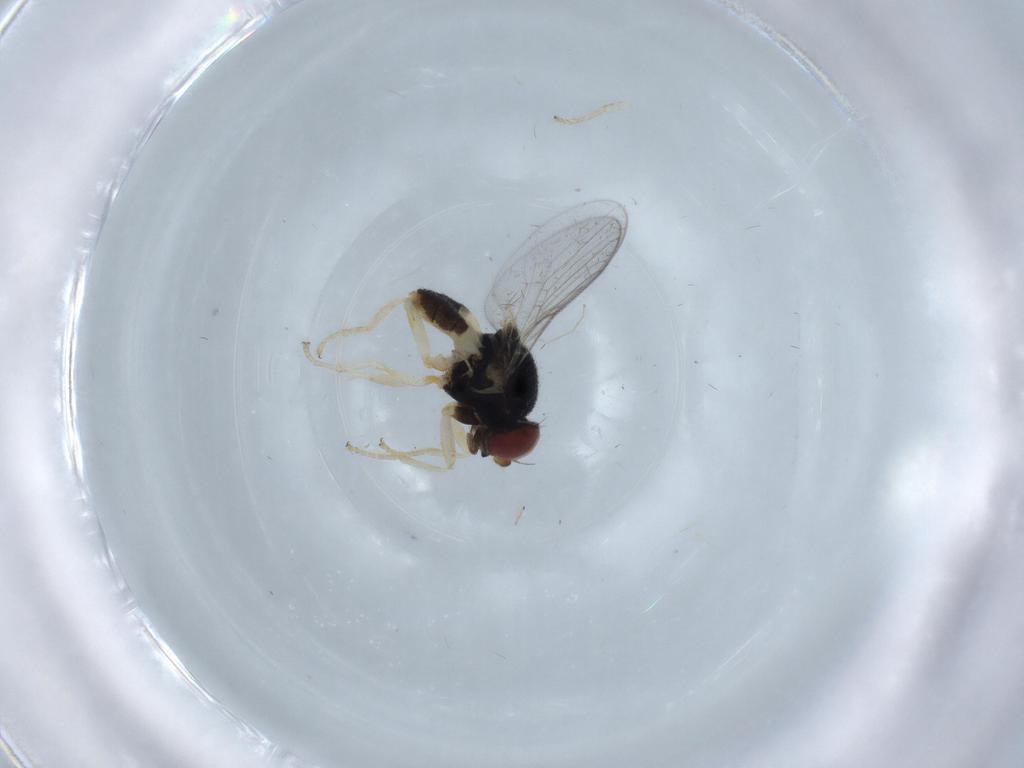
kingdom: Animalia
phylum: Arthropoda
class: Insecta
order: Diptera
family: Chloropidae
